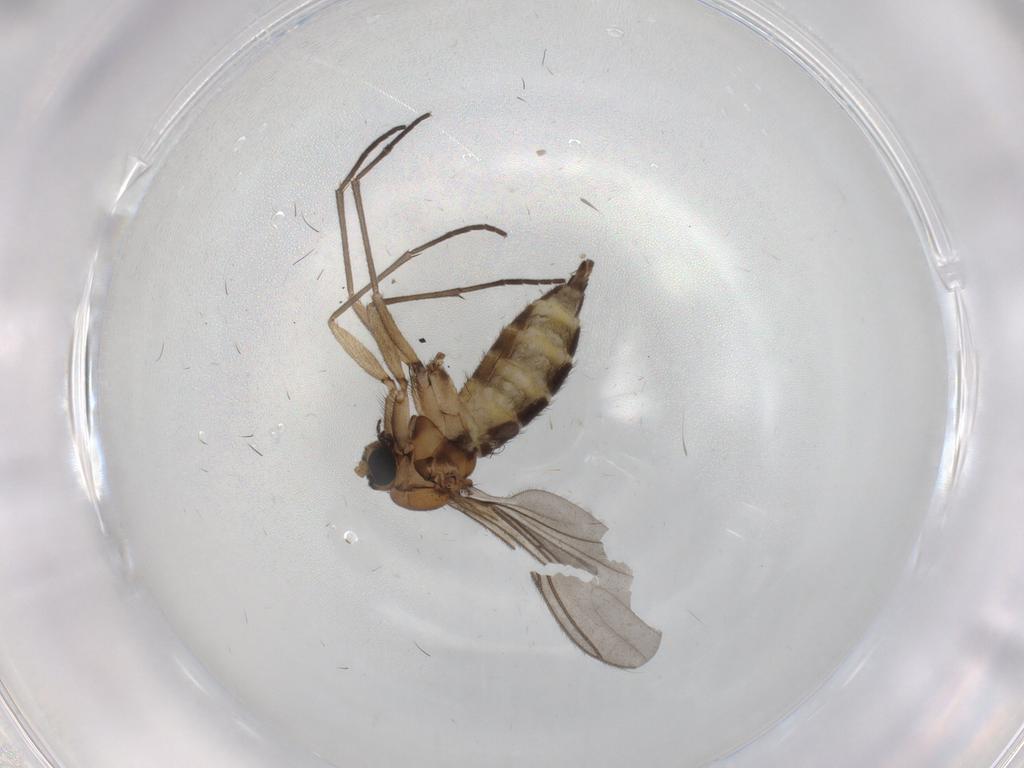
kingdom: Animalia
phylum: Arthropoda
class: Insecta
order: Diptera
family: Sciaridae
